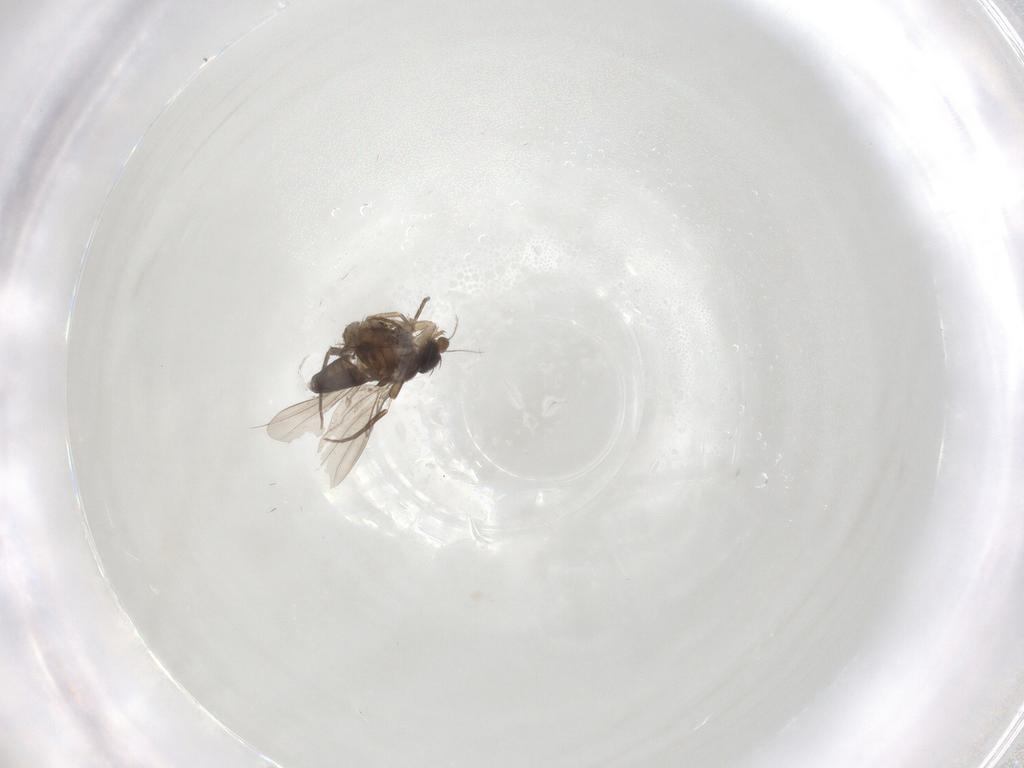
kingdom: Animalia
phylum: Arthropoda
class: Insecta
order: Diptera
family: Phoridae
